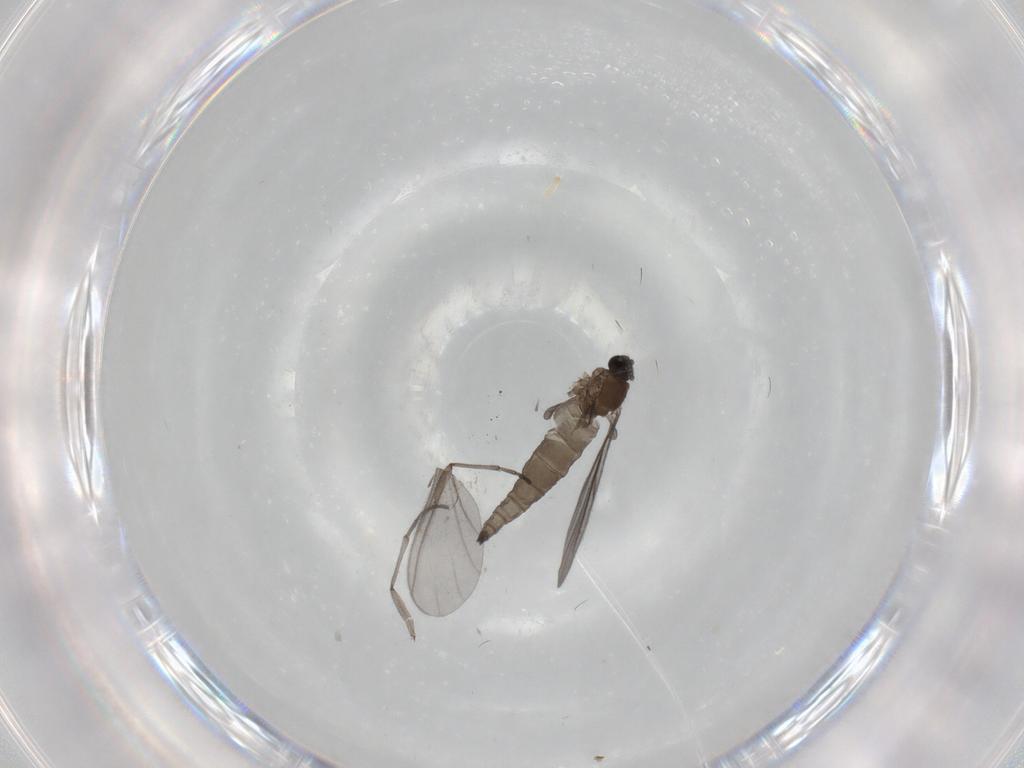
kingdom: Animalia
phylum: Arthropoda
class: Insecta
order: Diptera
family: Sciaridae
